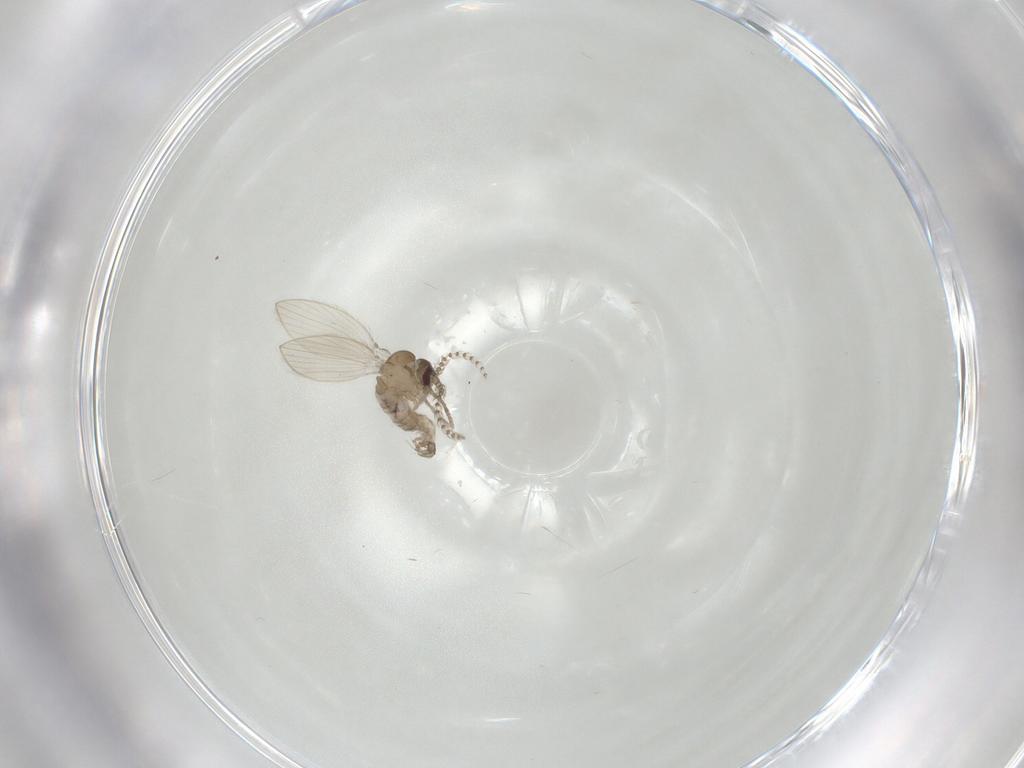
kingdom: Animalia
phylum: Arthropoda
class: Insecta
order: Diptera
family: Psychodidae
